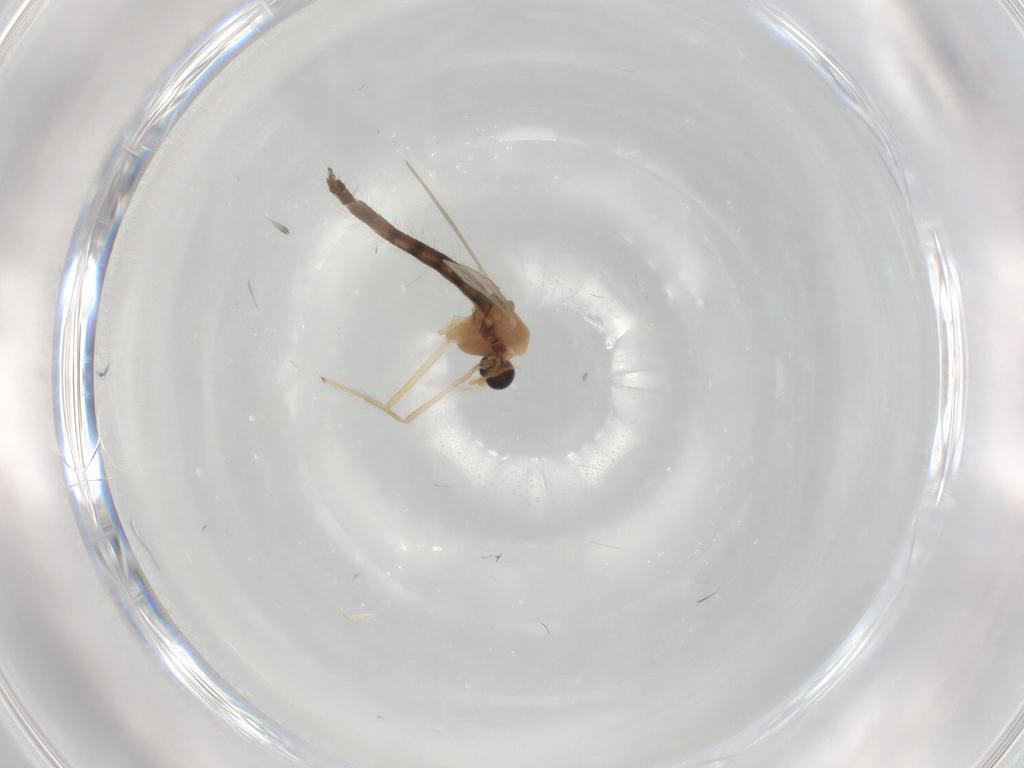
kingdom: Animalia
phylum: Arthropoda
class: Insecta
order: Diptera
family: Chironomidae
